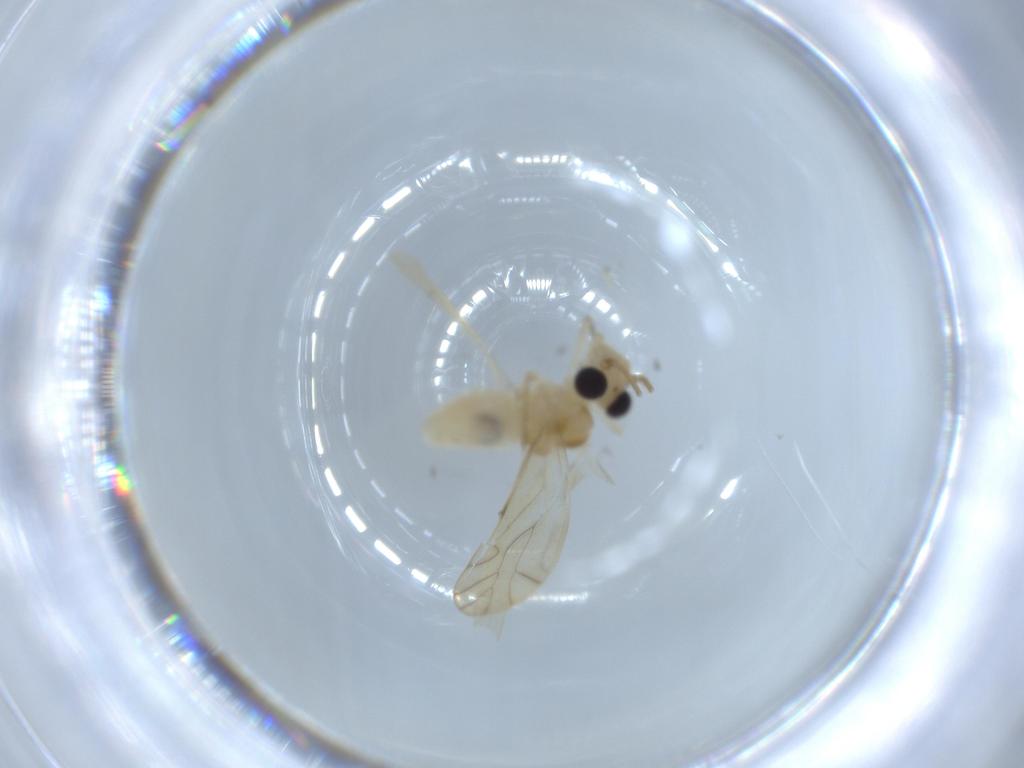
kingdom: Animalia
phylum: Arthropoda
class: Insecta
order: Psocodea
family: Caeciliusidae
